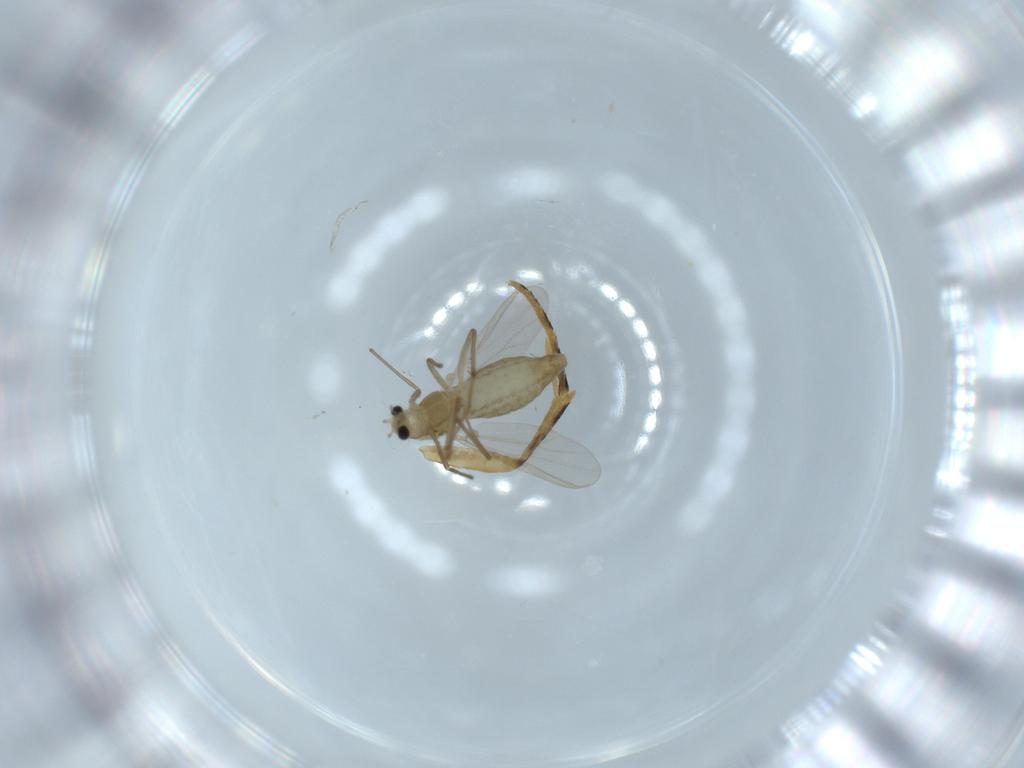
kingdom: Animalia
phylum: Arthropoda
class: Insecta
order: Diptera
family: Chironomidae
